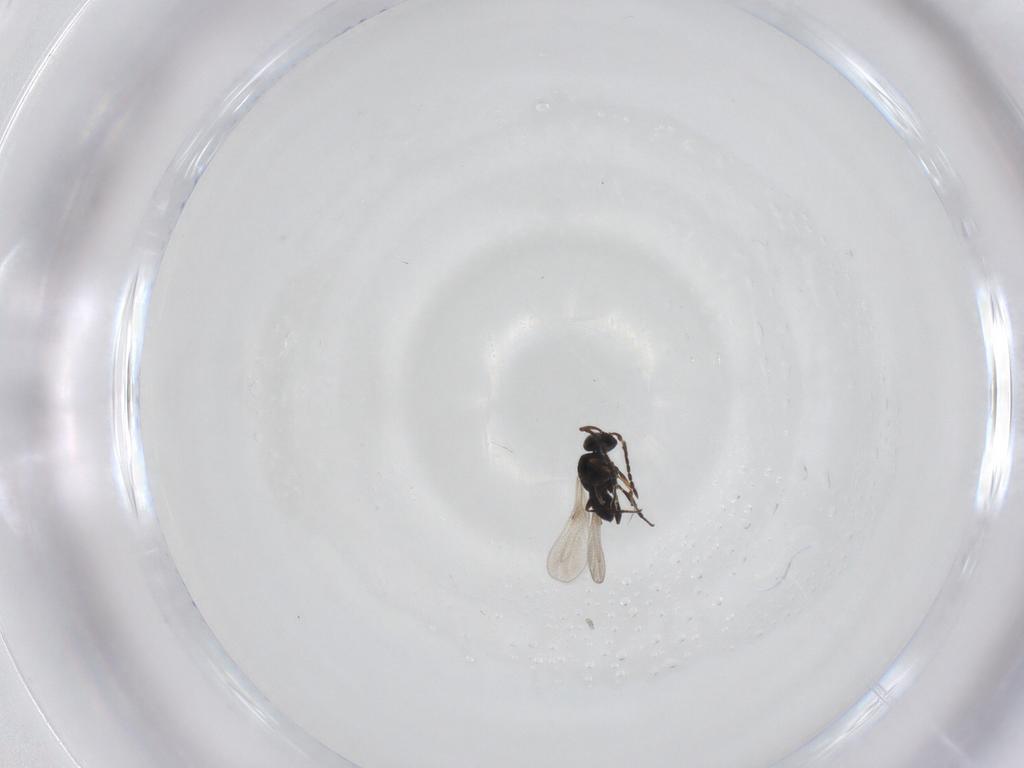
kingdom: Animalia
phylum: Arthropoda
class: Insecta
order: Hymenoptera
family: Platygastridae
